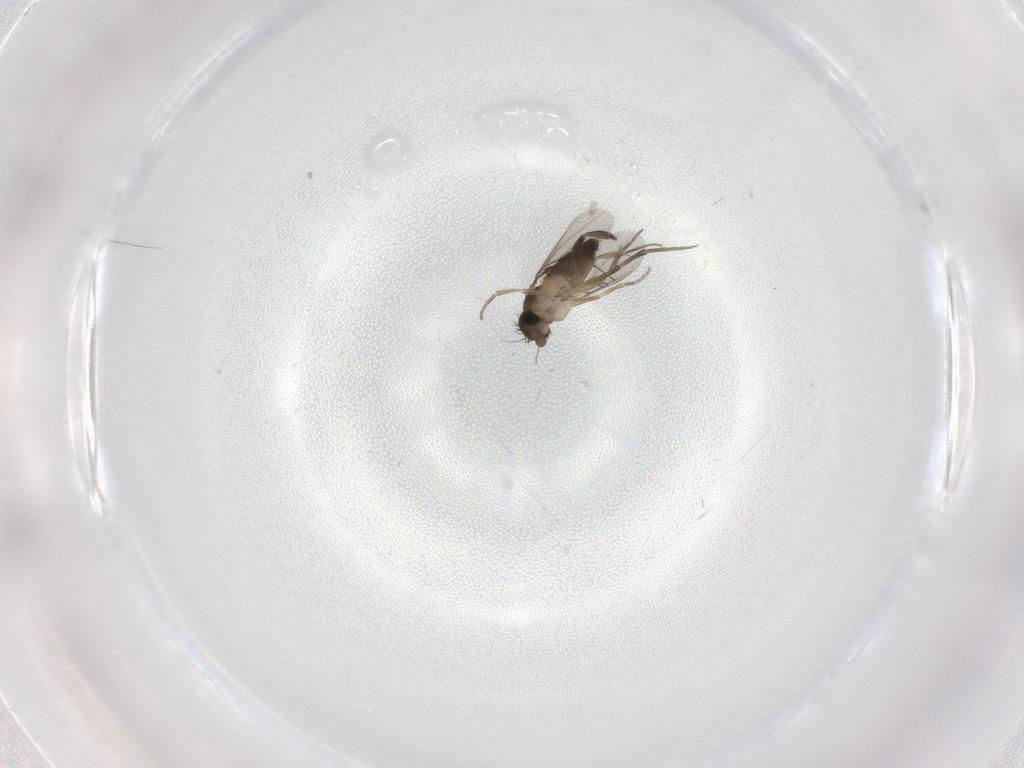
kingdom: Animalia
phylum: Arthropoda
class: Insecta
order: Diptera
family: Phoridae
